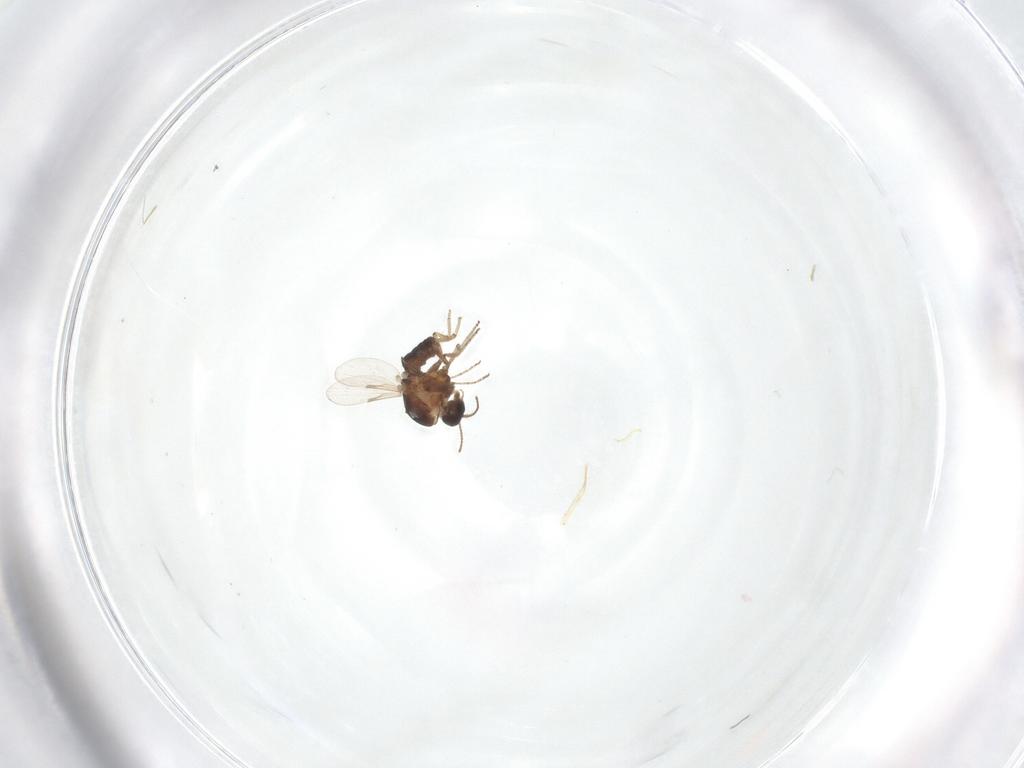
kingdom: Animalia
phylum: Arthropoda
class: Insecta
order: Diptera
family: Ceratopogonidae
